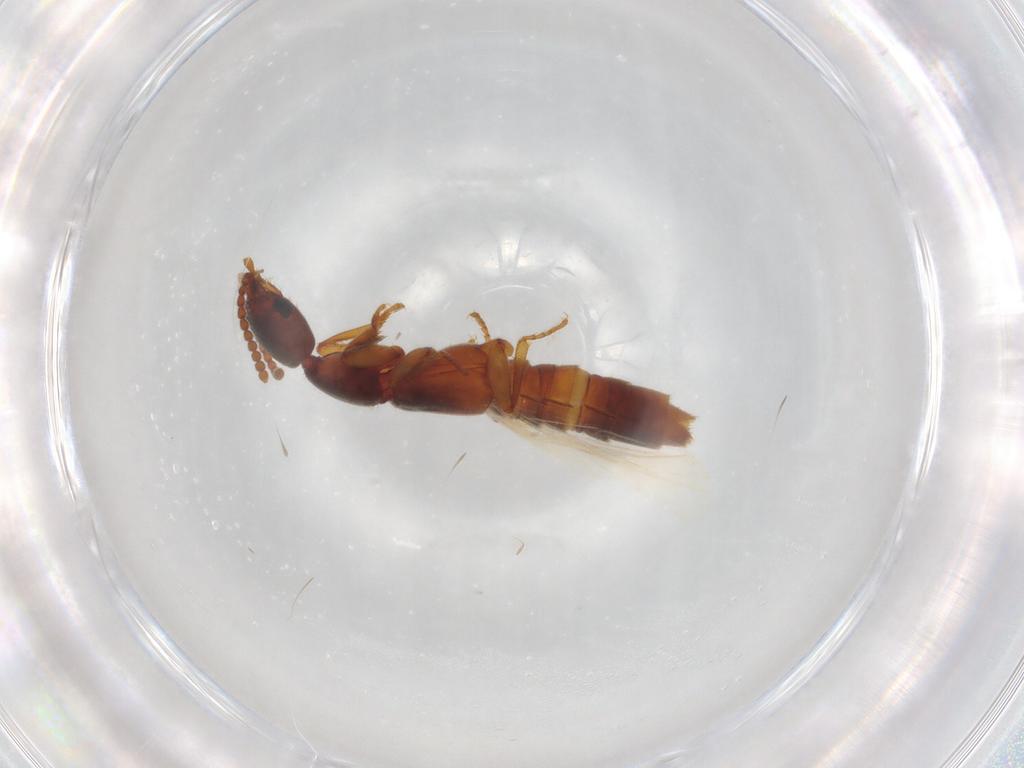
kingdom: Animalia
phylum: Arthropoda
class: Insecta
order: Coleoptera
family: Staphylinidae
